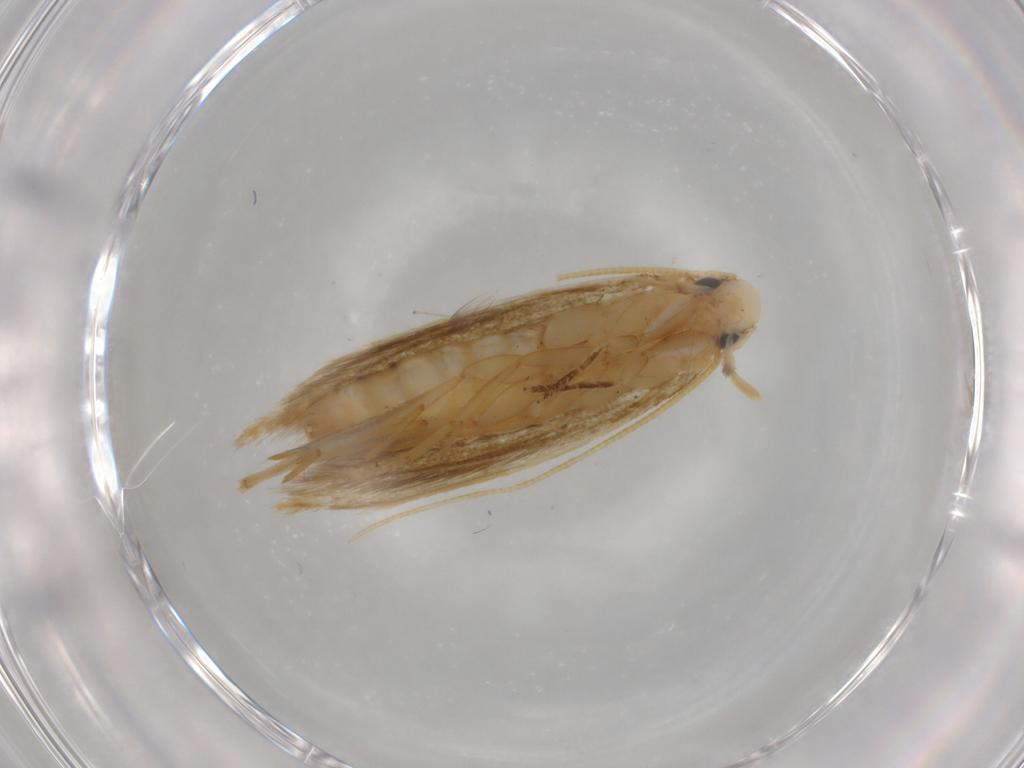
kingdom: Animalia
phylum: Arthropoda
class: Insecta
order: Lepidoptera
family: Tineidae
